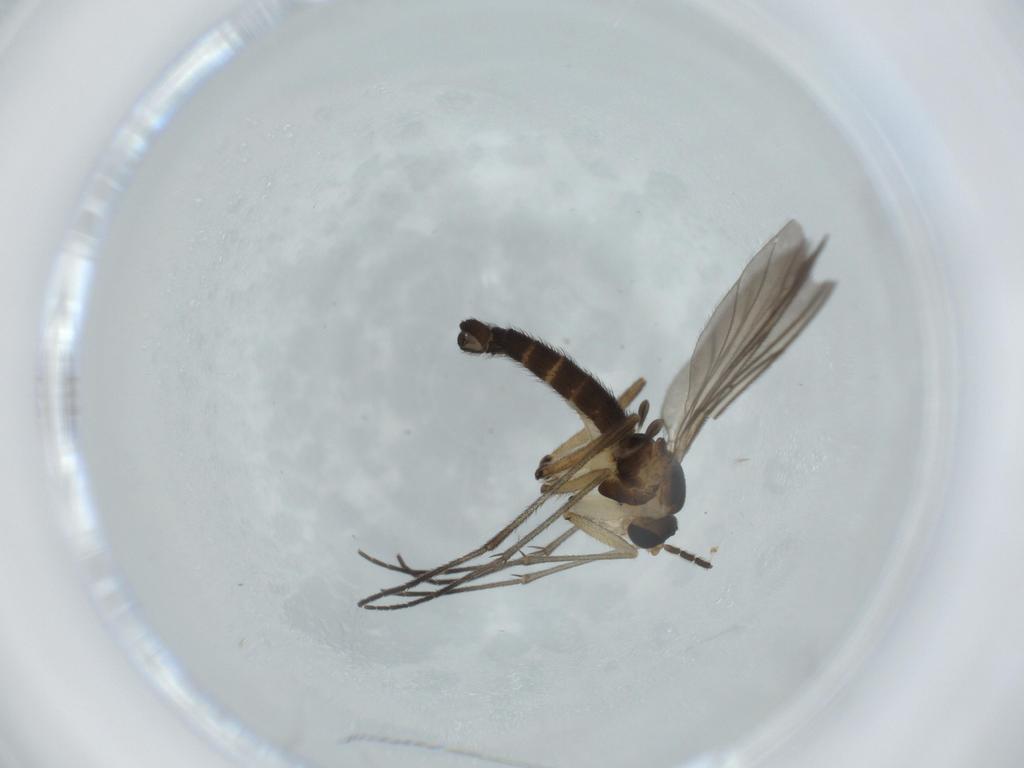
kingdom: Animalia
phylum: Arthropoda
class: Insecta
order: Diptera
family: Sciaridae
